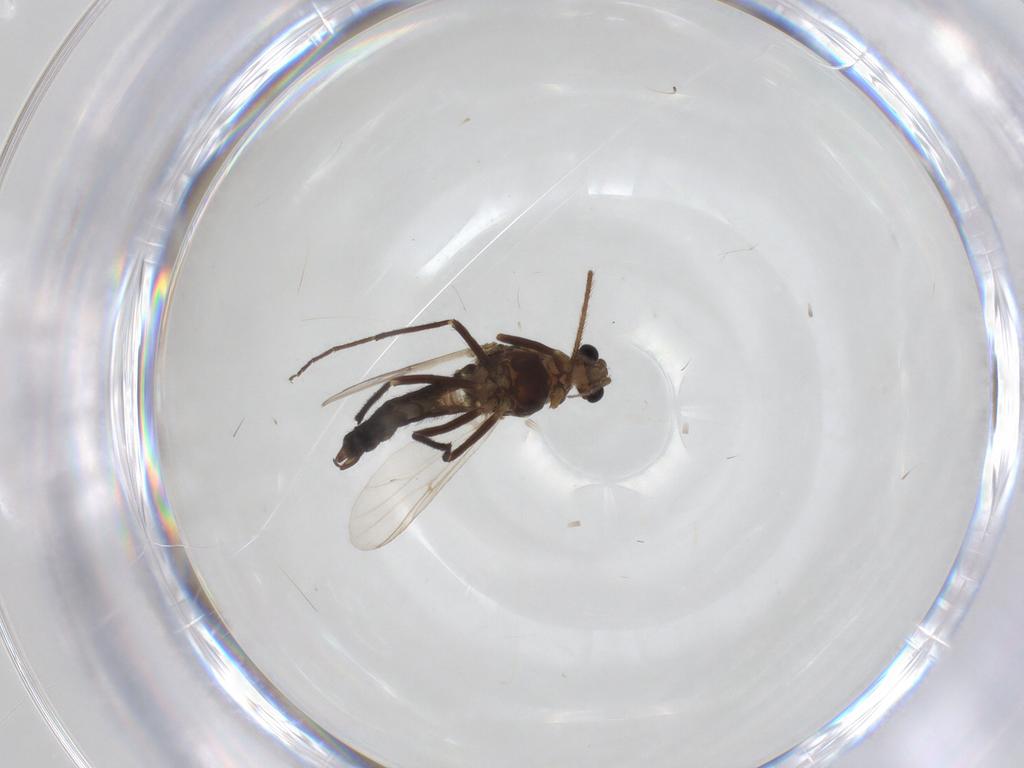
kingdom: Animalia
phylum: Arthropoda
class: Insecta
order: Diptera
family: Chironomidae
